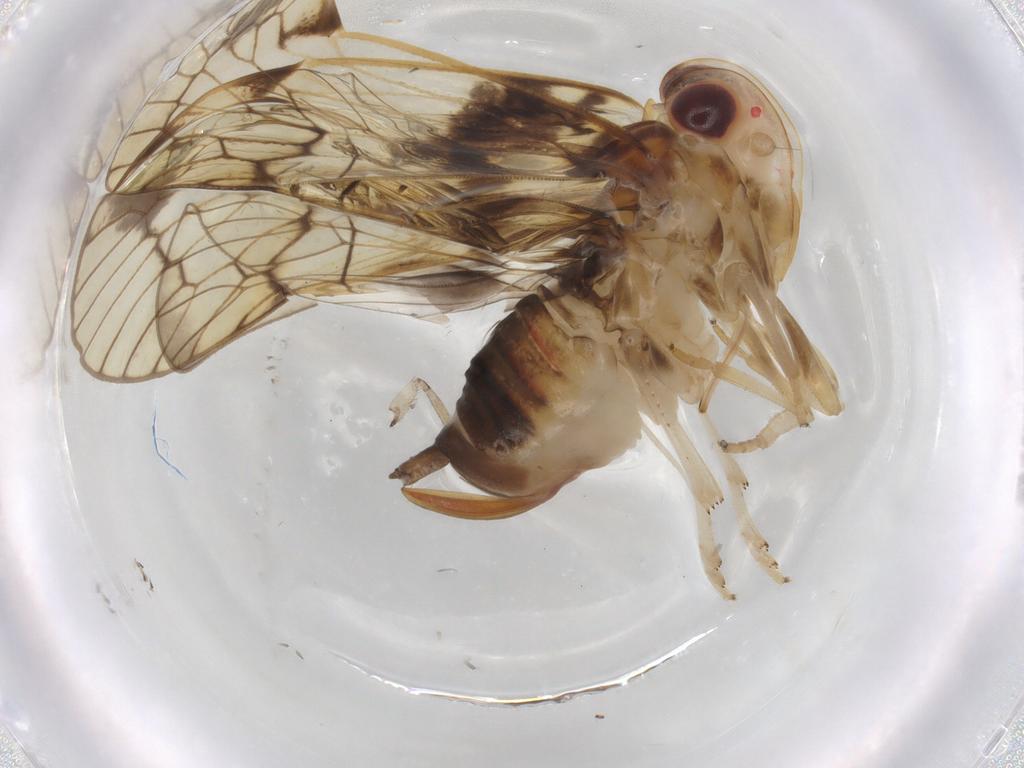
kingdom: Animalia
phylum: Arthropoda
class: Insecta
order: Hemiptera
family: Cixiidae
